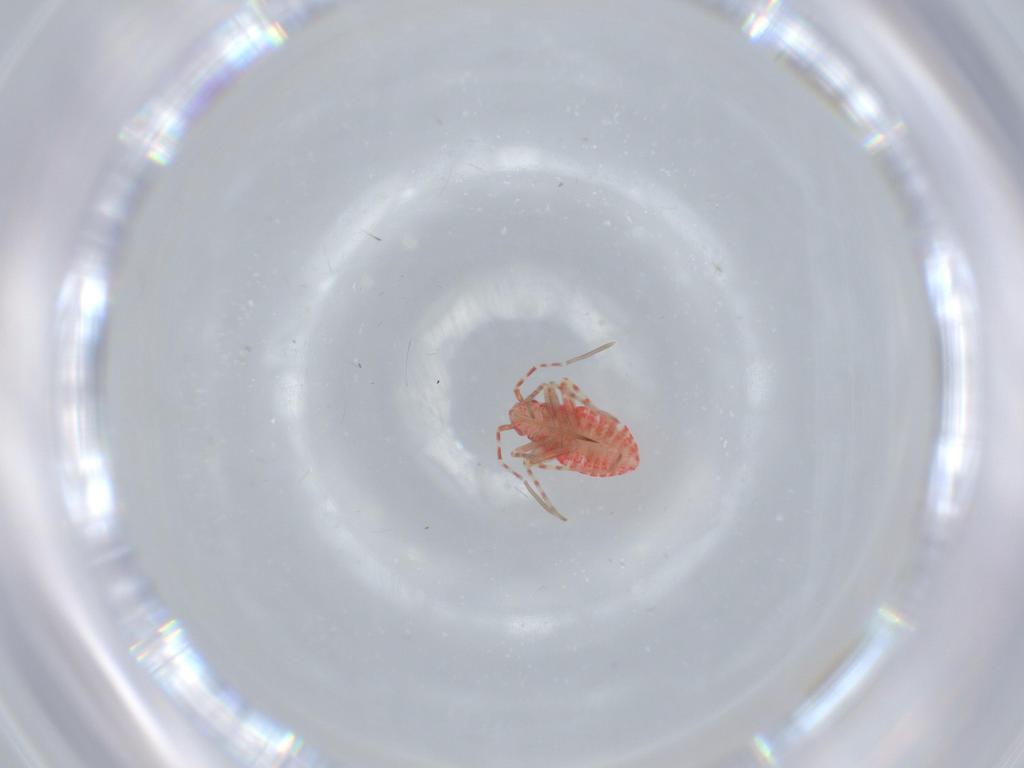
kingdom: Animalia
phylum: Arthropoda
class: Insecta
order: Hemiptera
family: Miridae
